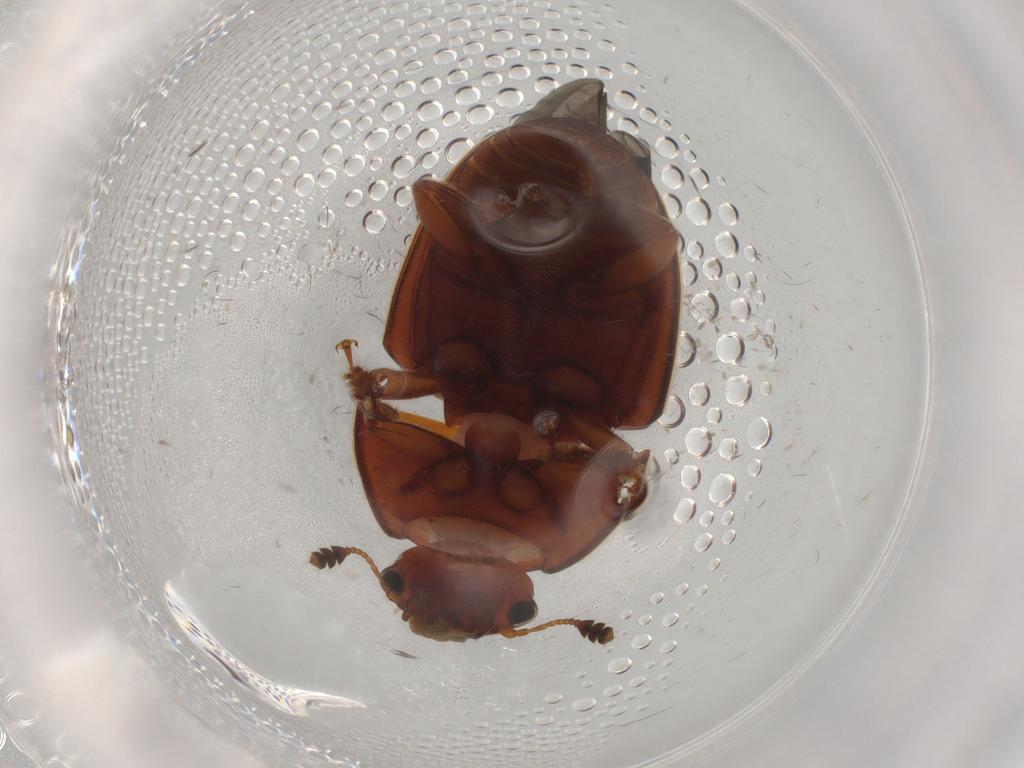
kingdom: Animalia
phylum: Arthropoda
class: Insecta
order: Coleoptera
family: Nitidulidae
